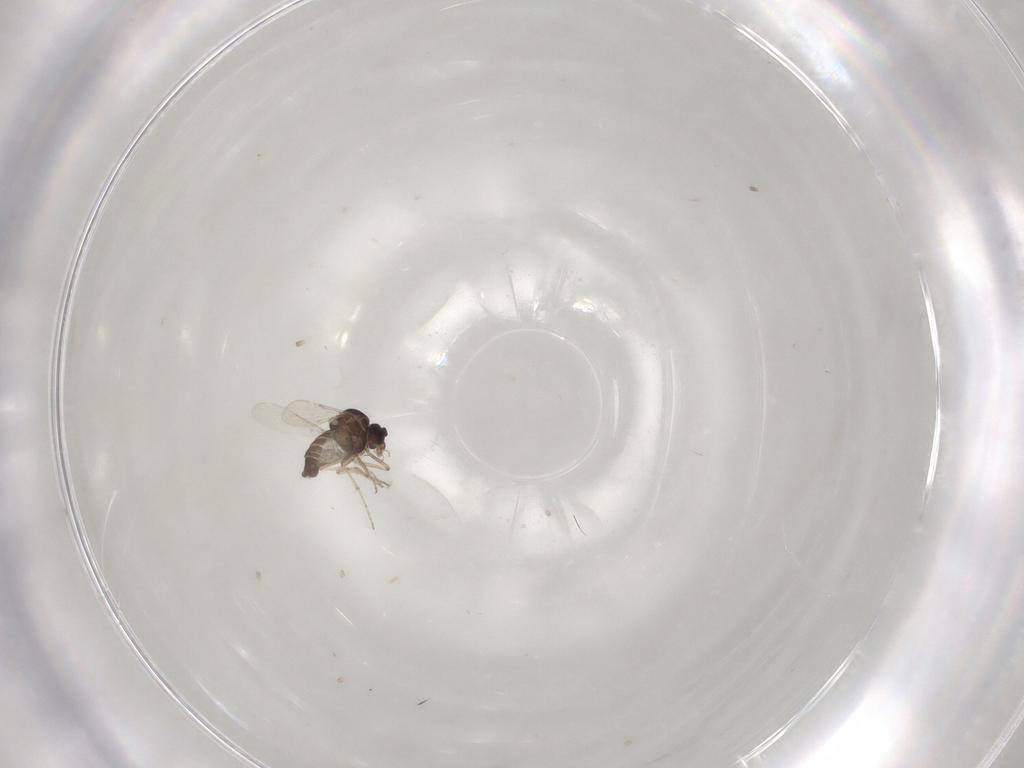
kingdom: Animalia
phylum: Arthropoda
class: Insecta
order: Diptera
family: Ceratopogonidae
